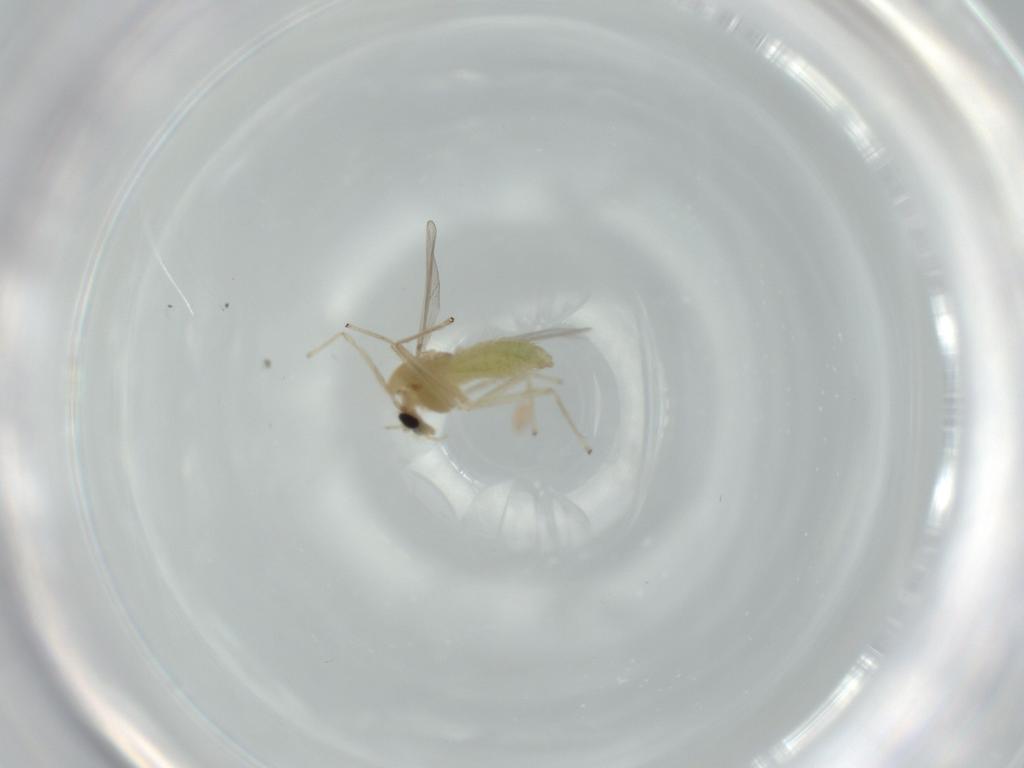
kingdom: Animalia
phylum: Arthropoda
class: Insecta
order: Diptera
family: Chironomidae
